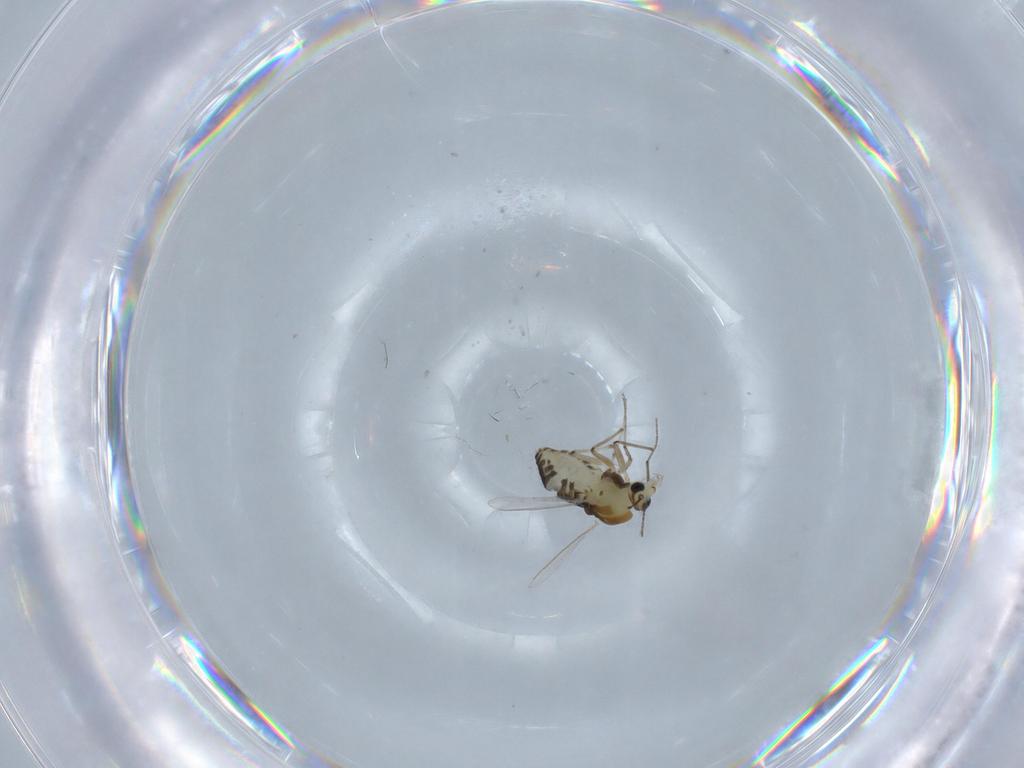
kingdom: Animalia
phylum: Arthropoda
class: Insecta
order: Diptera
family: Chironomidae
